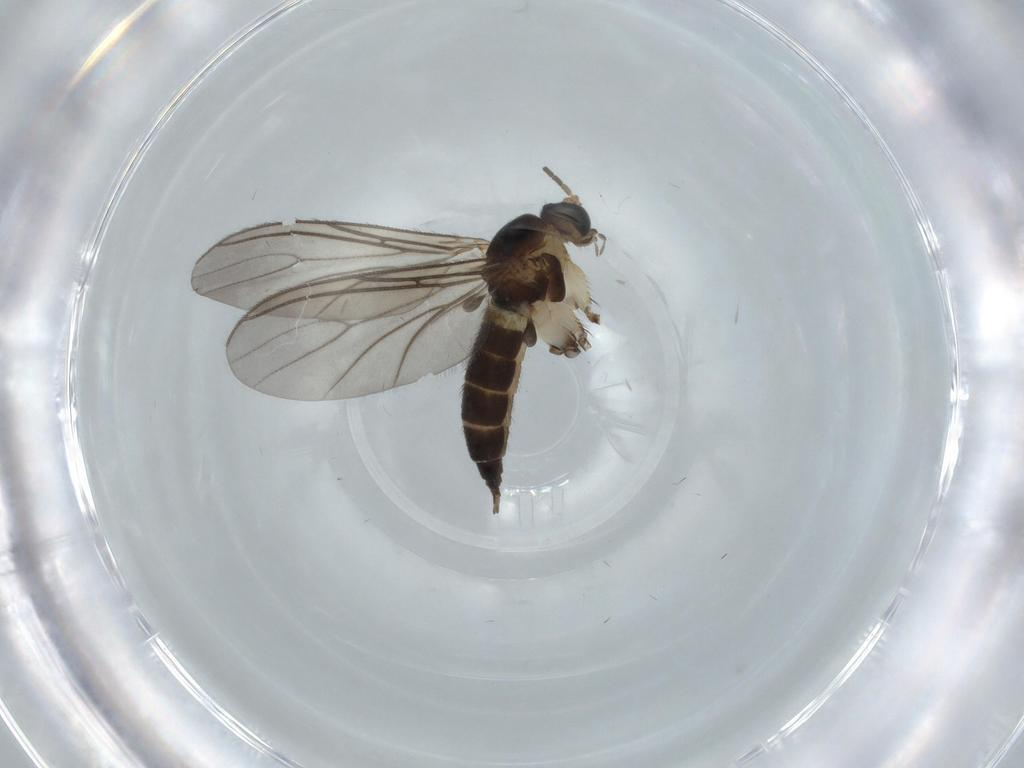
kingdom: Animalia
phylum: Arthropoda
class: Insecta
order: Diptera
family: Sciaridae
